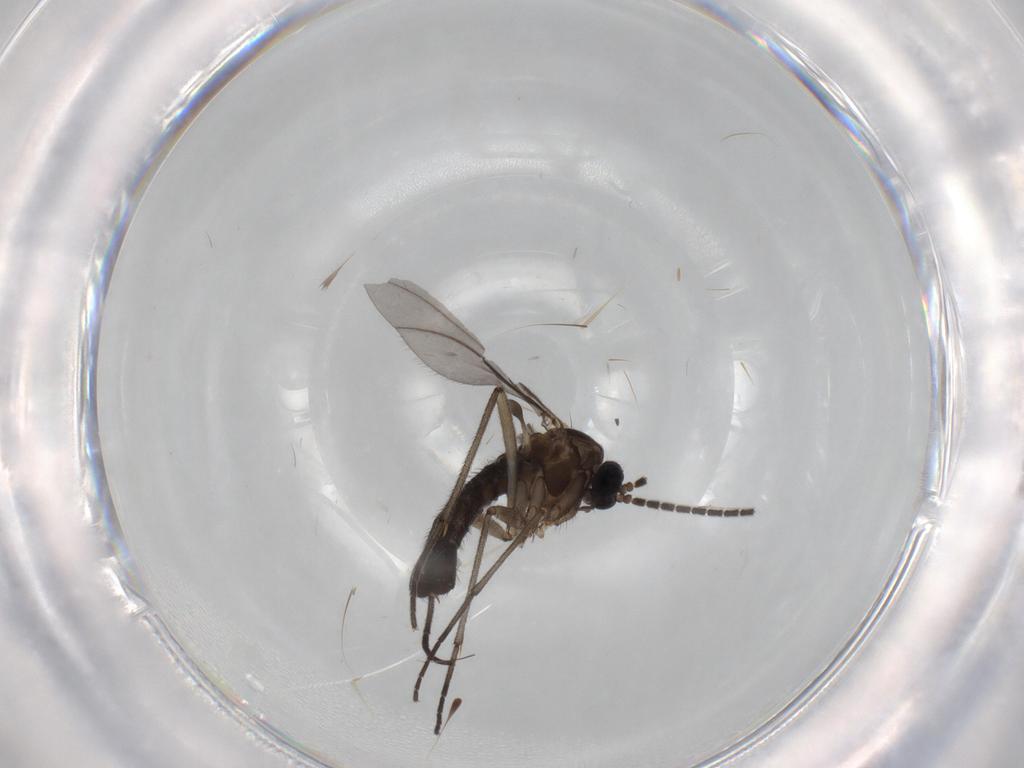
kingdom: Animalia
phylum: Arthropoda
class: Insecta
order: Diptera
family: Sciaridae
